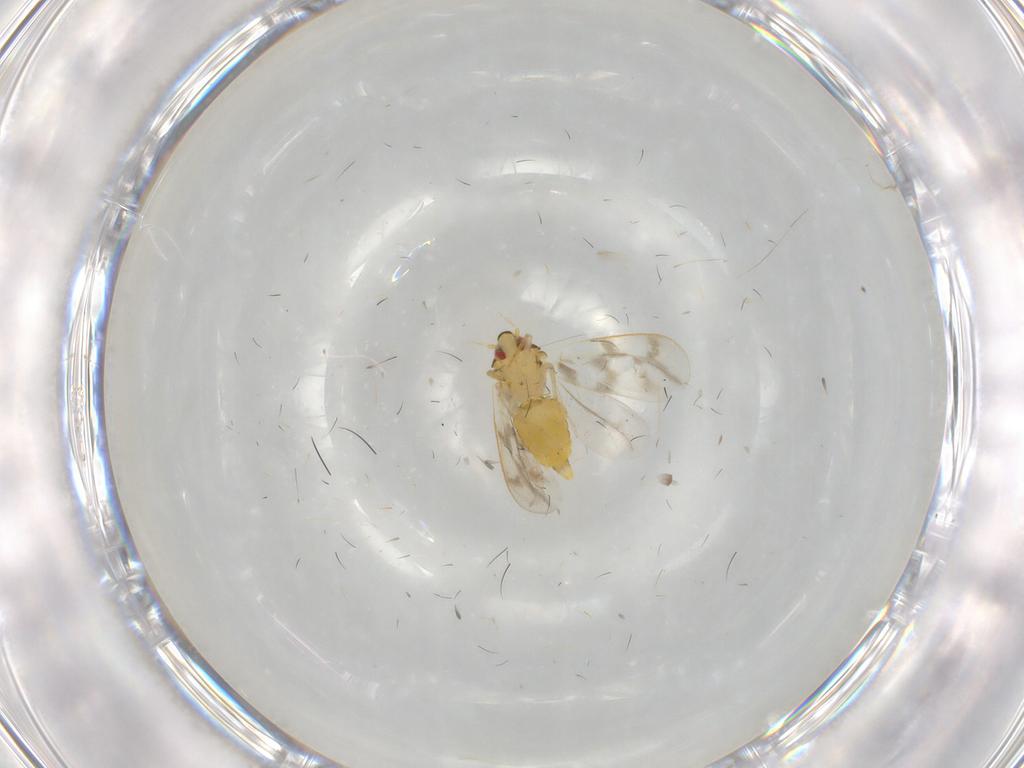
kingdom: Animalia
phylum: Arthropoda
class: Insecta
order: Hemiptera
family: Aleyrodidae
